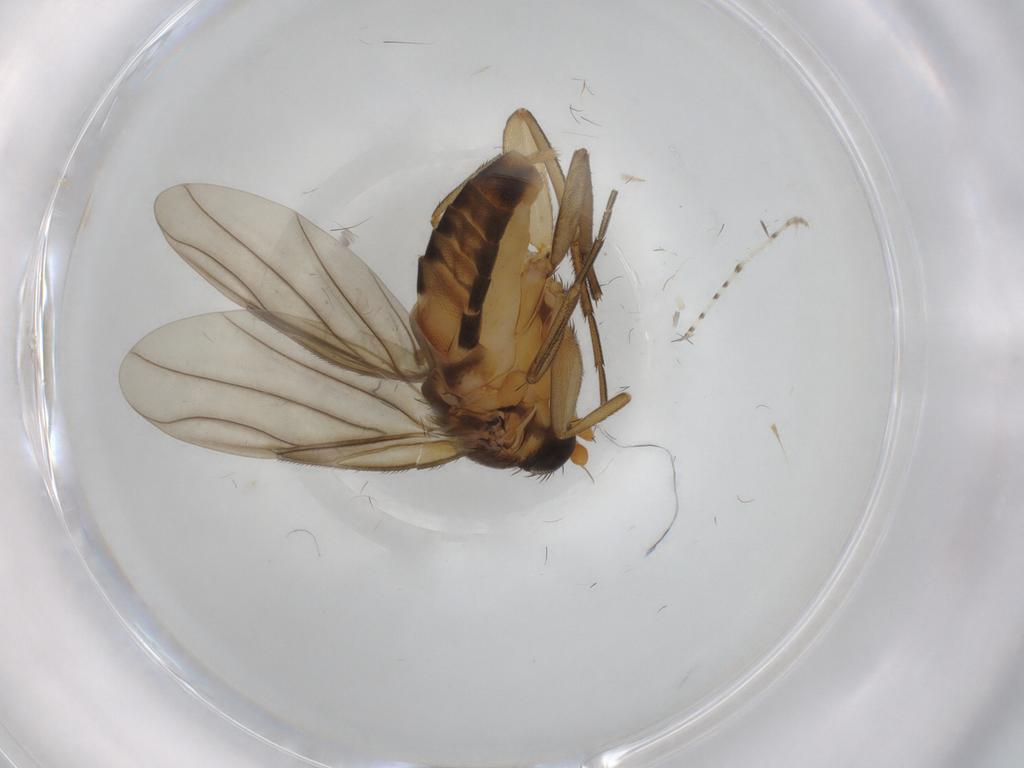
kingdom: Animalia
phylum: Arthropoda
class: Insecta
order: Diptera
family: Phoridae
